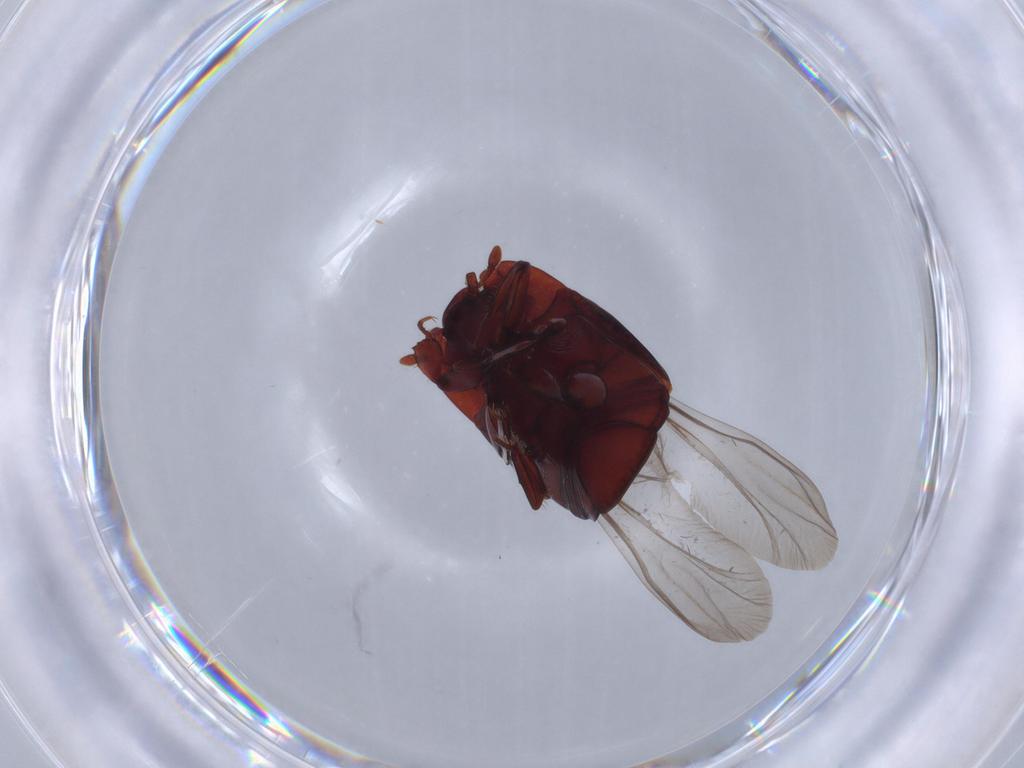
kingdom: Animalia
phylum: Arthropoda
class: Insecta
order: Coleoptera
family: Histeridae
